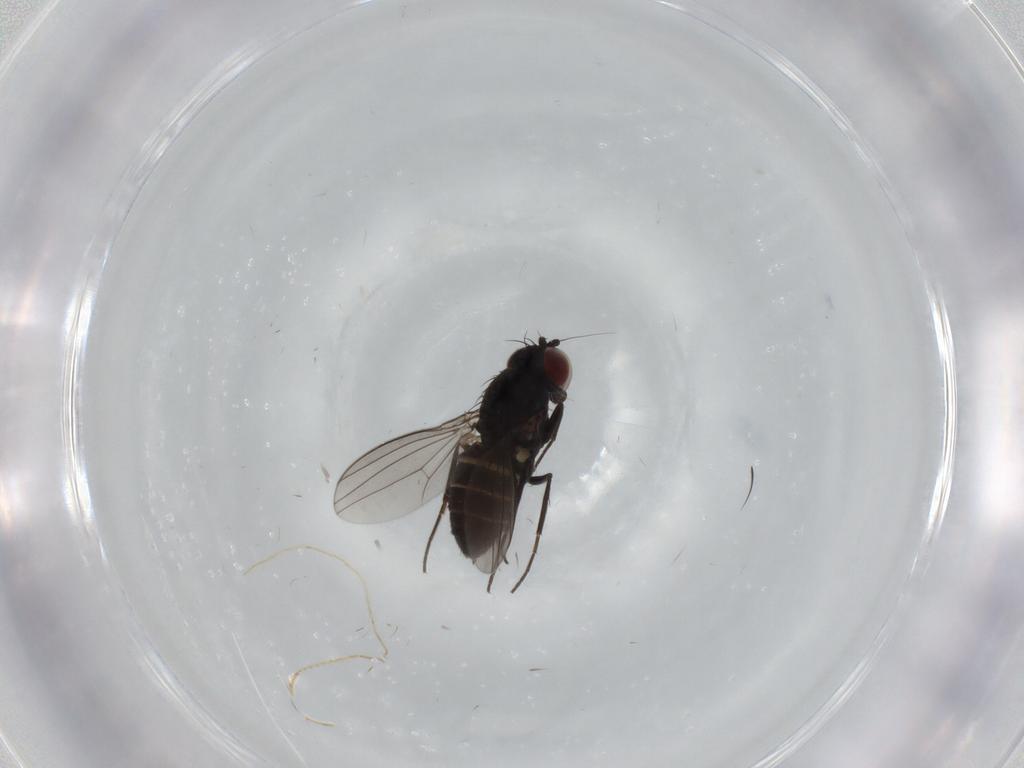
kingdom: Animalia
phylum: Arthropoda
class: Insecta
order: Diptera
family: Dolichopodidae
